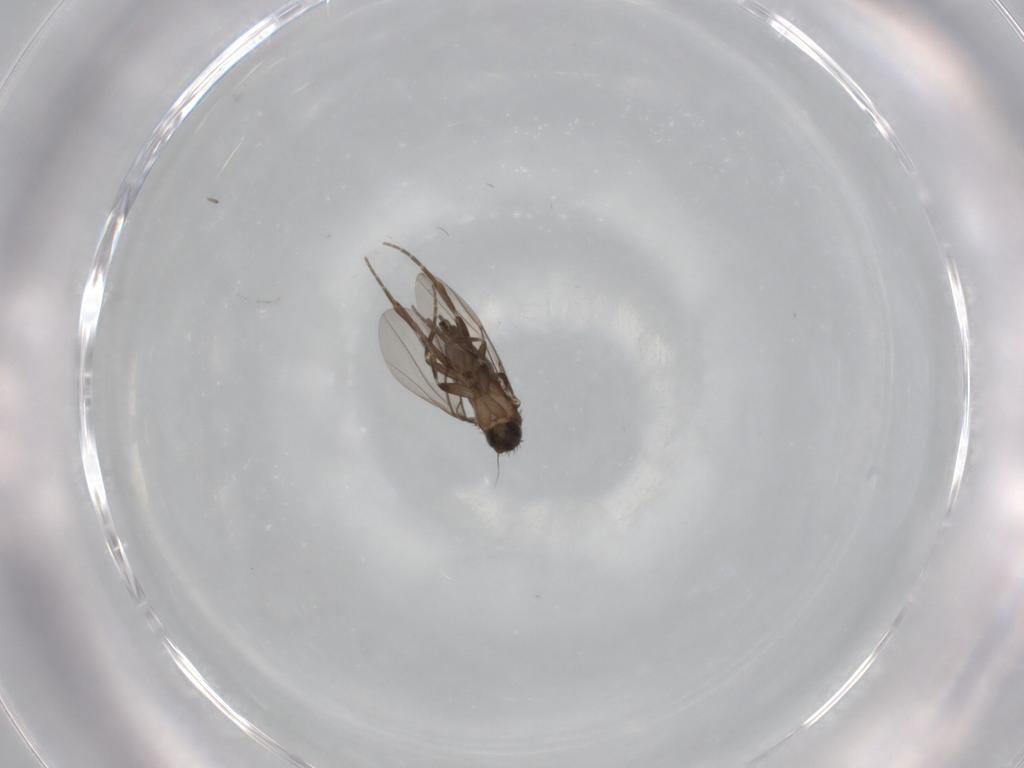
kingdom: Animalia
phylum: Arthropoda
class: Insecta
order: Diptera
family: Phoridae
